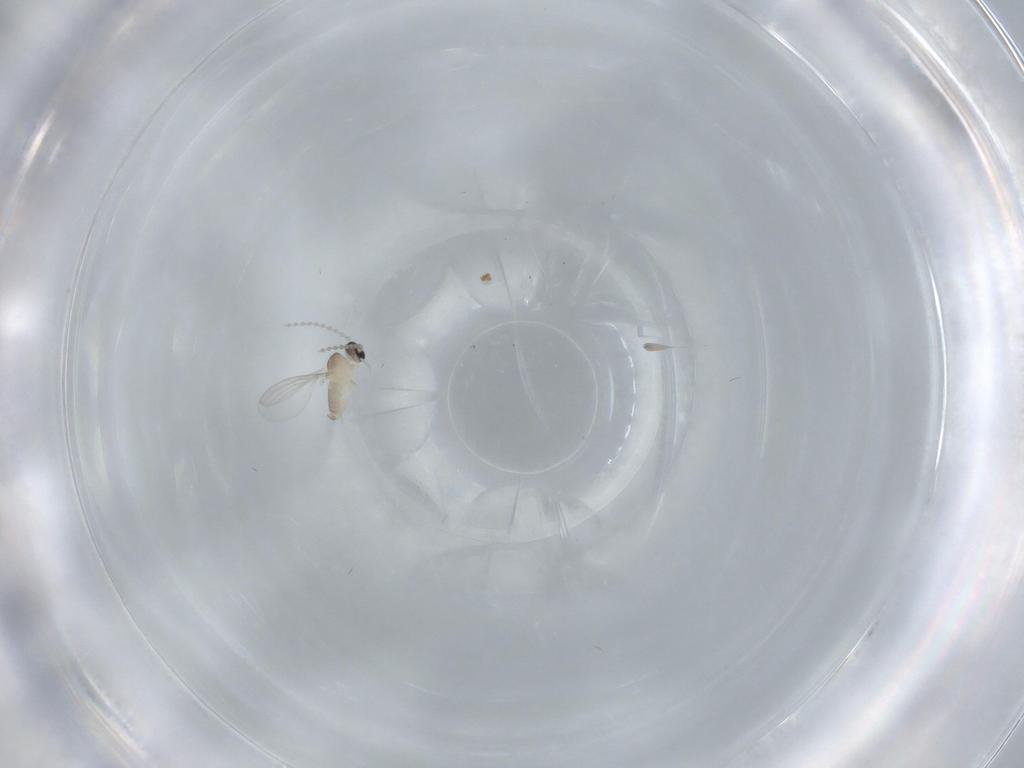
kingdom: Animalia
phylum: Arthropoda
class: Insecta
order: Diptera
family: Cecidomyiidae
